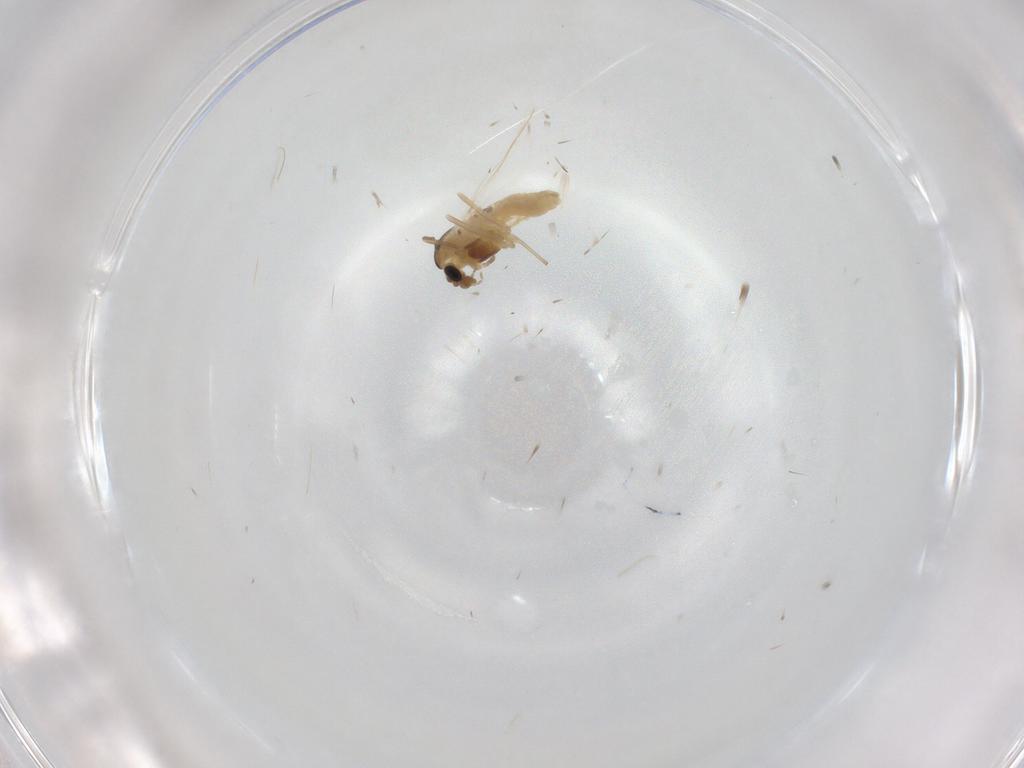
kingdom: Animalia
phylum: Arthropoda
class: Insecta
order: Diptera
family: Chironomidae
